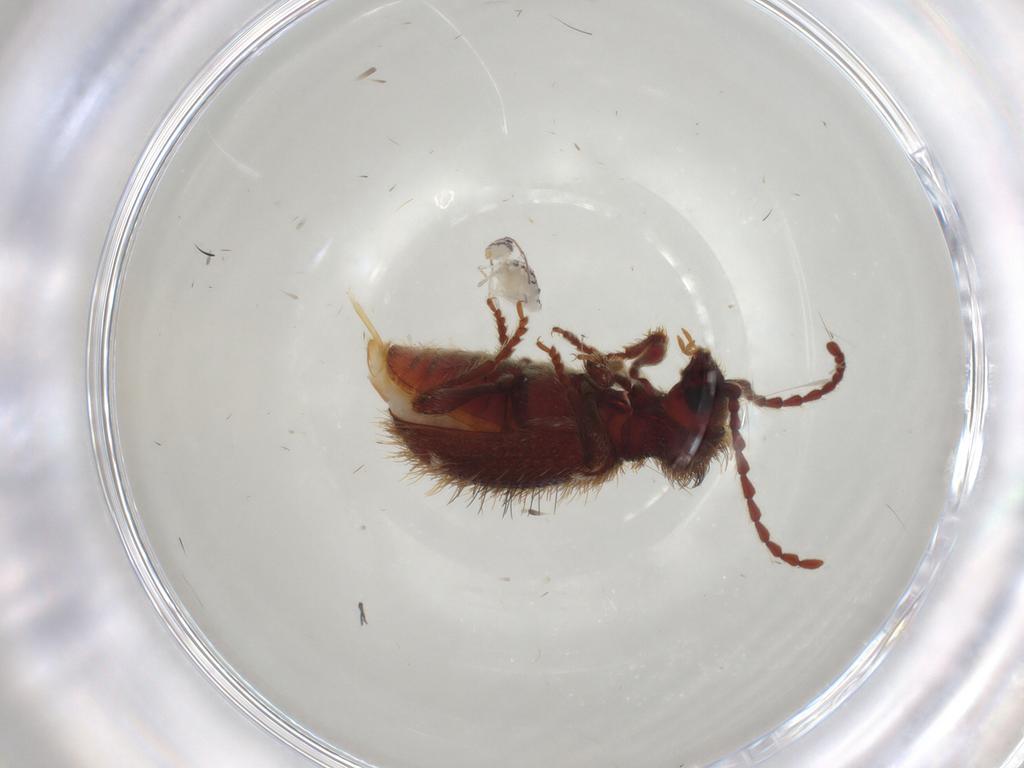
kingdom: Animalia
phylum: Arthropoda
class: Insecta
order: Coleoptera
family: Ptinidae
